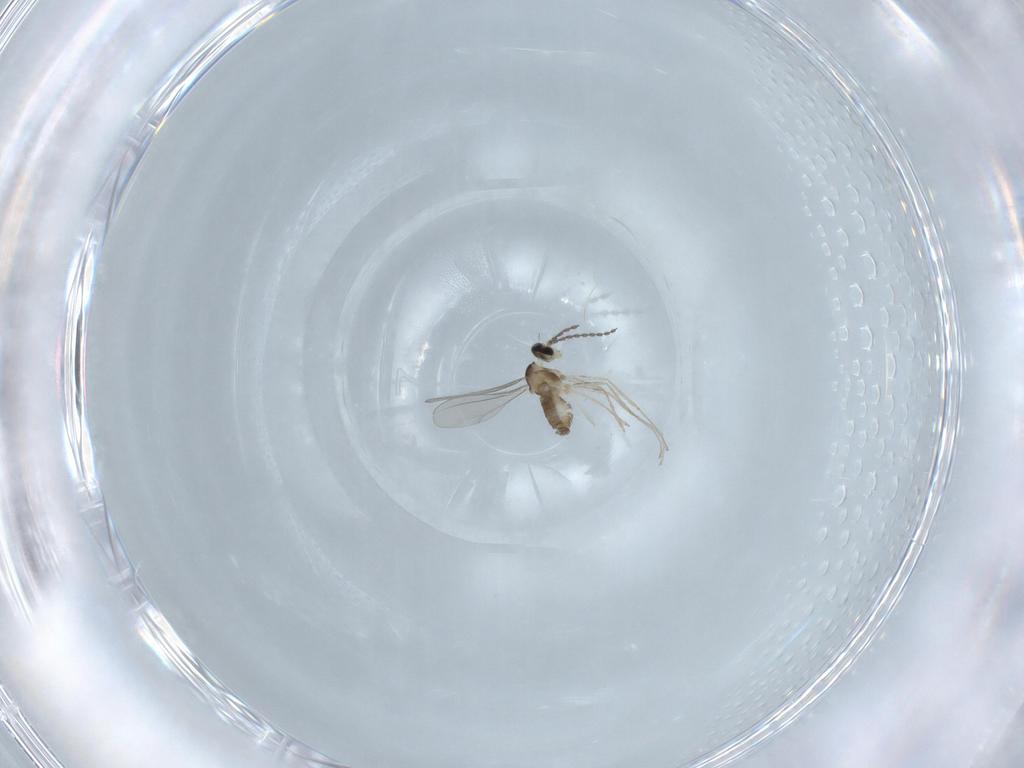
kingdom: Animalia
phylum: Arthropoda
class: Insecta
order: Diptera
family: Cecidomyiidae
